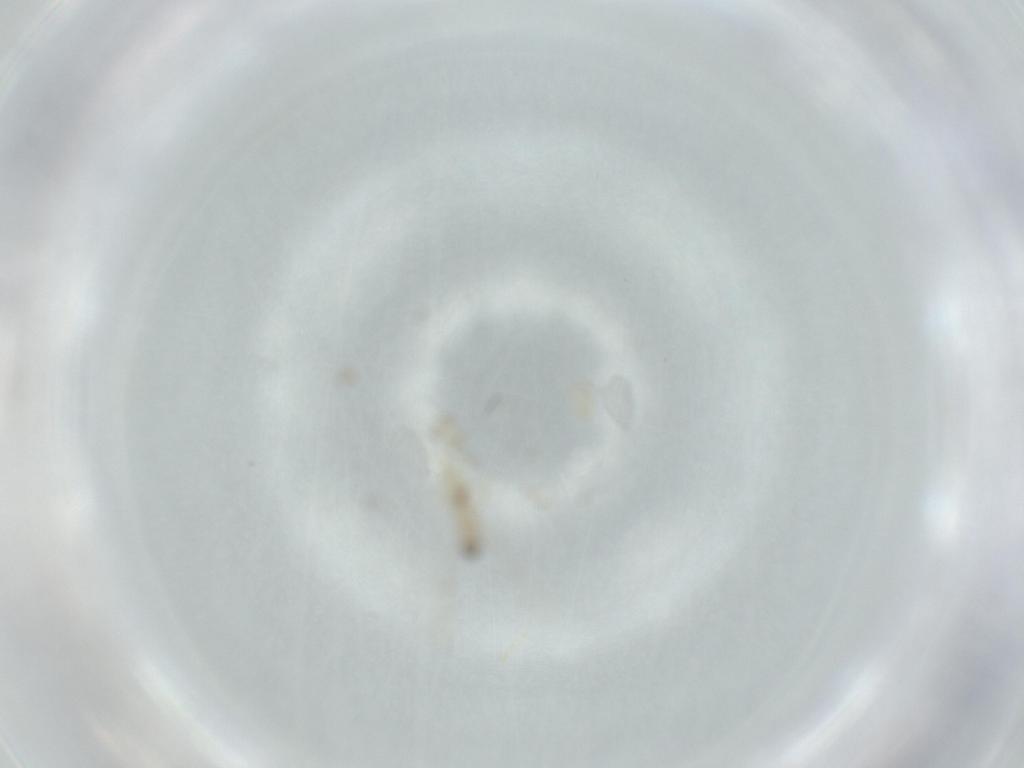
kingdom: Animalia
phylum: Arthropoda
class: Insecta
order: Diptera
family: Cecidomyiidae
